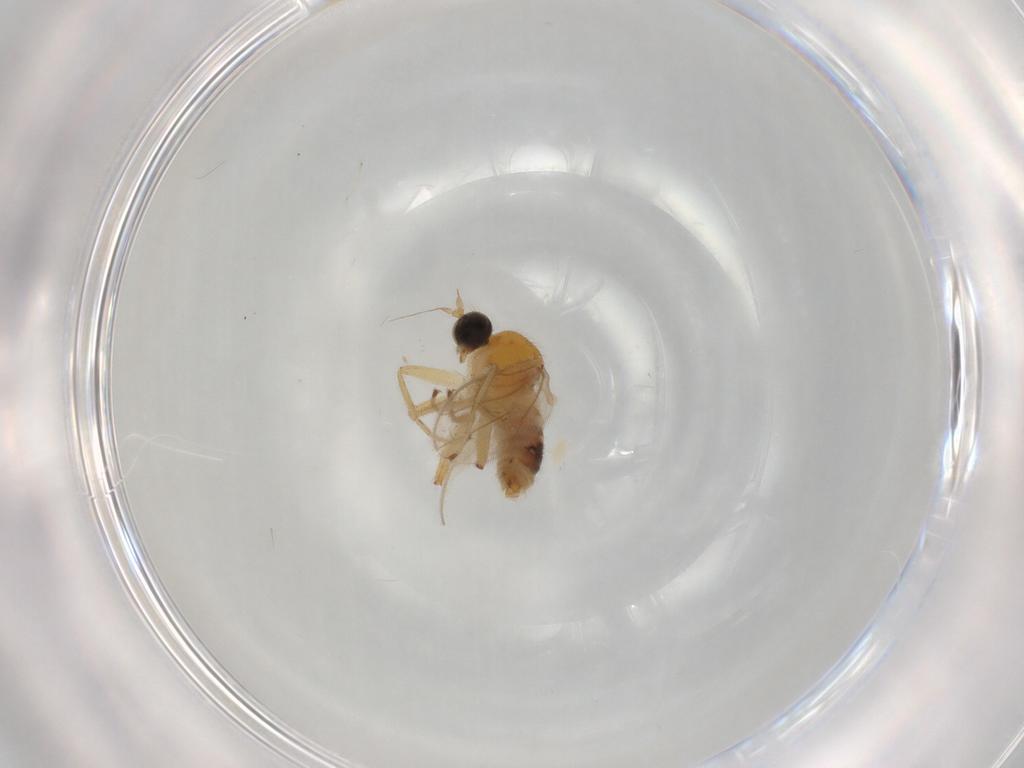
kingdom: Animalia
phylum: Arthropoda
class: Insecta
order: Diptera
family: Hybotidae
